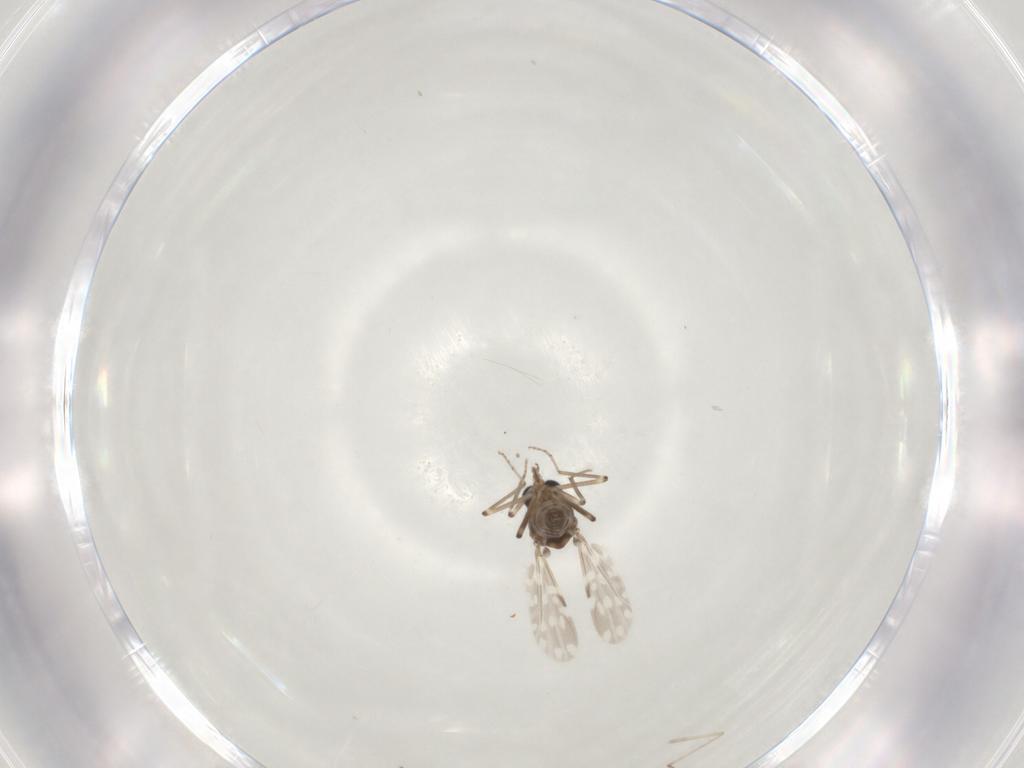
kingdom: Animalia
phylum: Arthropoda
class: Insecta
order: Diptera
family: Ceratopogonidae
